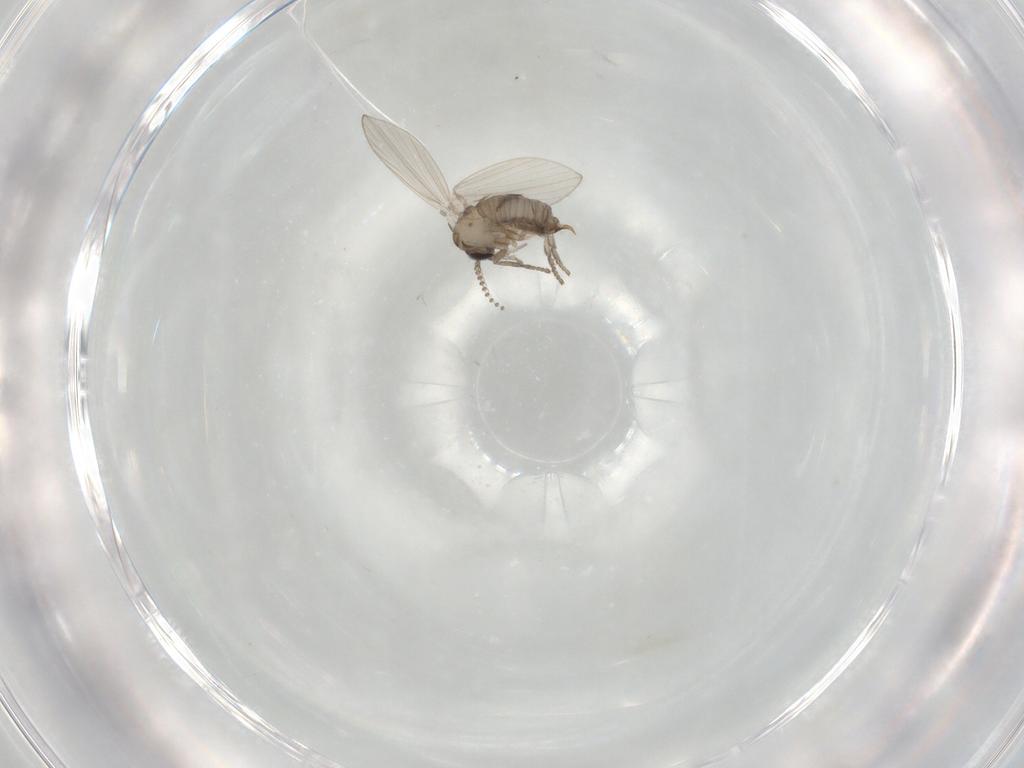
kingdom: Animalia
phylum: Arthropoda
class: Insecta
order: Diptera
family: Psychodidae
